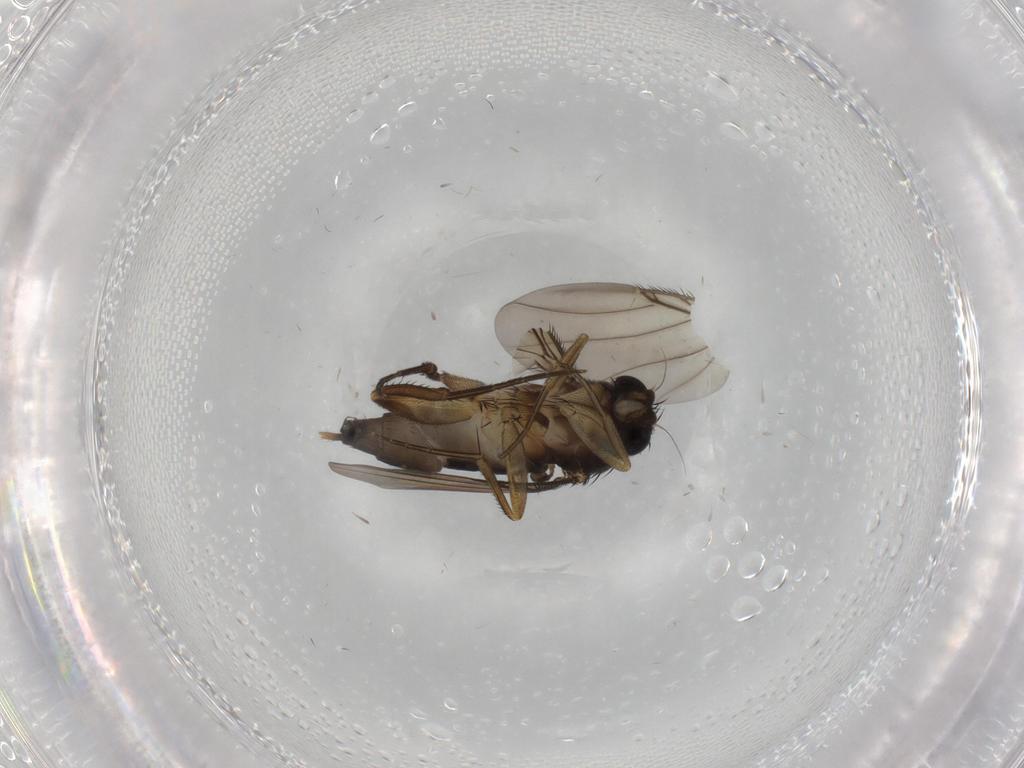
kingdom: Animalia
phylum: Arthropoda
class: Insecta
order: Diptera
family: Phoridae
